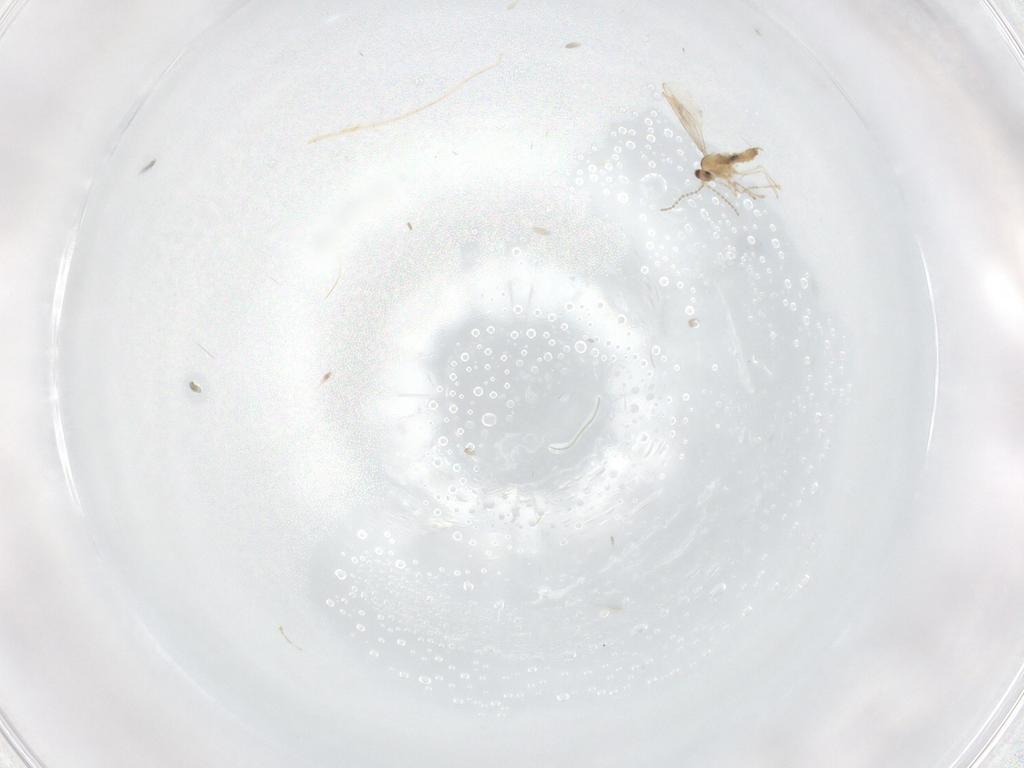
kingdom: Animalia
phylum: Arthropoda
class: Insecta
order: Diptera
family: Phoridae
